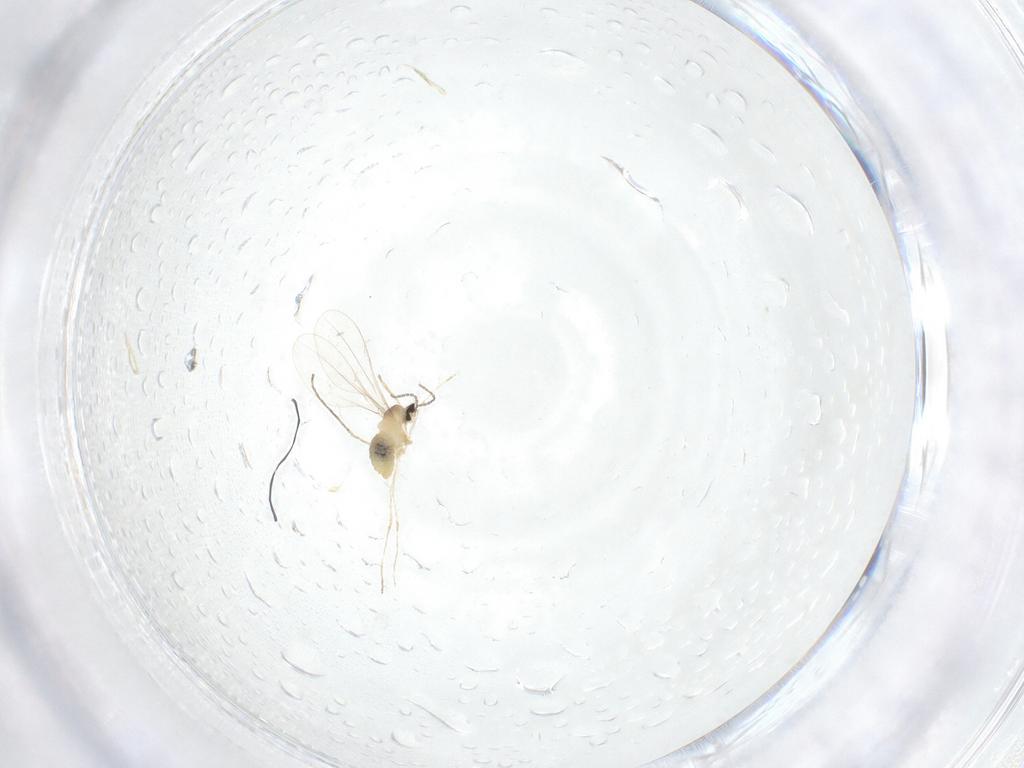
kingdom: Animalia
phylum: Arthropoda
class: Insecta
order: Diptera
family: Cecidomyiidae
